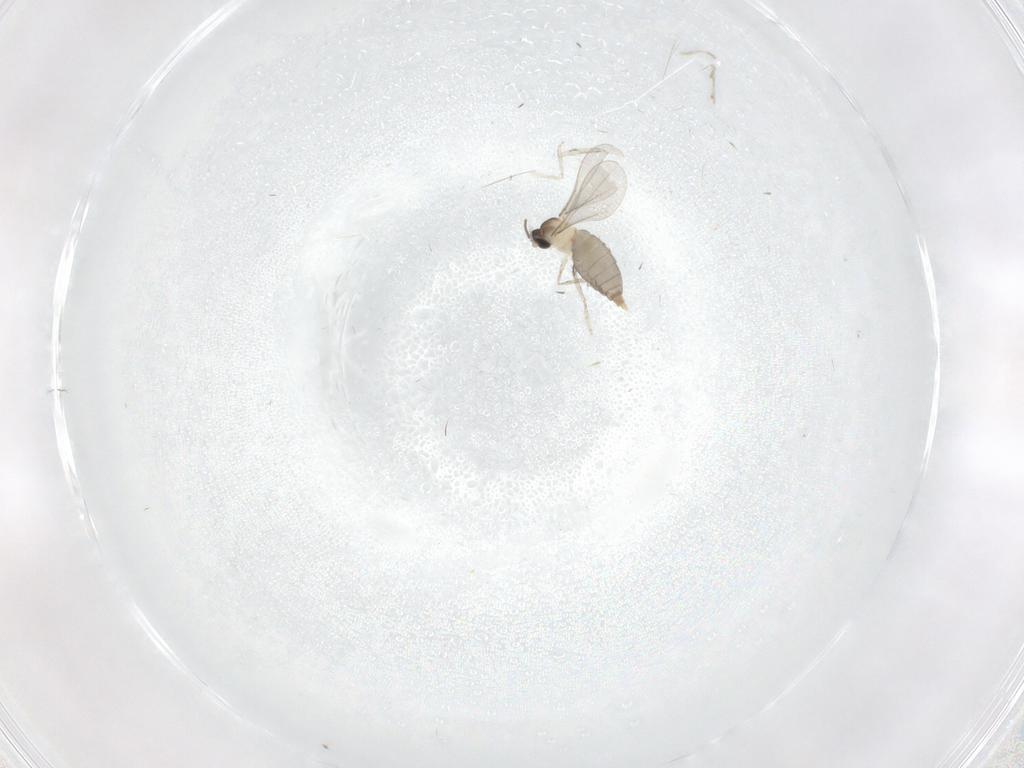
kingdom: Animalia
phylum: Arthropoda
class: Insecta
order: Diptera
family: Cecidomyiidae
